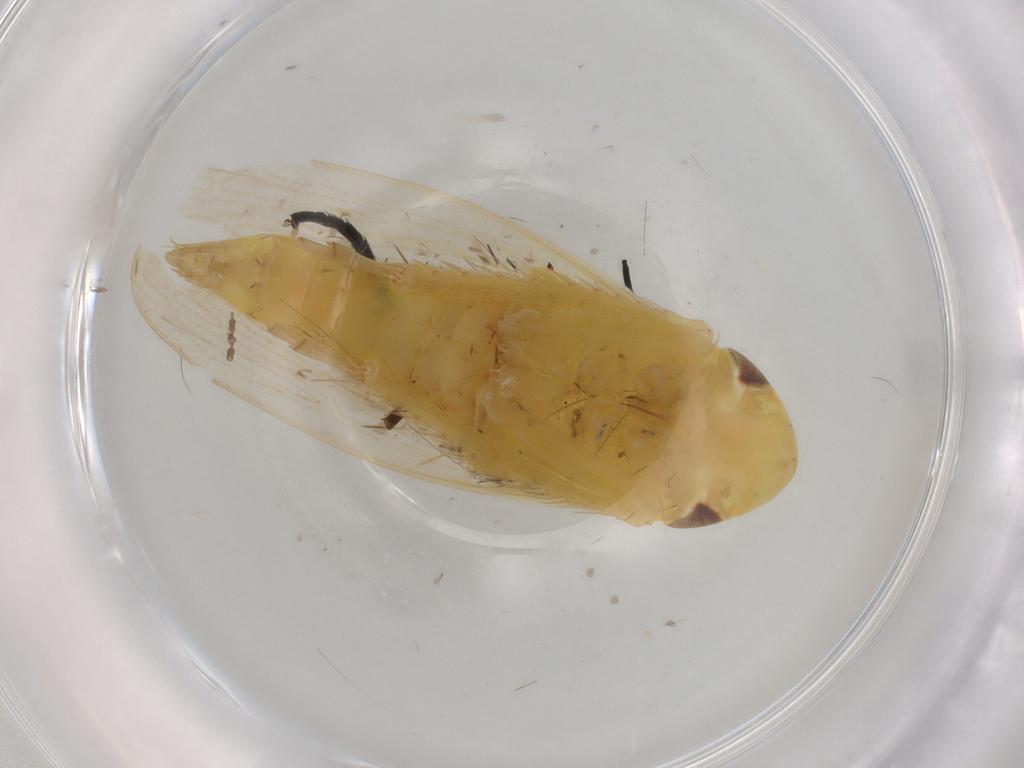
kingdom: Animalia
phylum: Arthropoda
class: Insecta
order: Hemiptera
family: Cicadellidae
